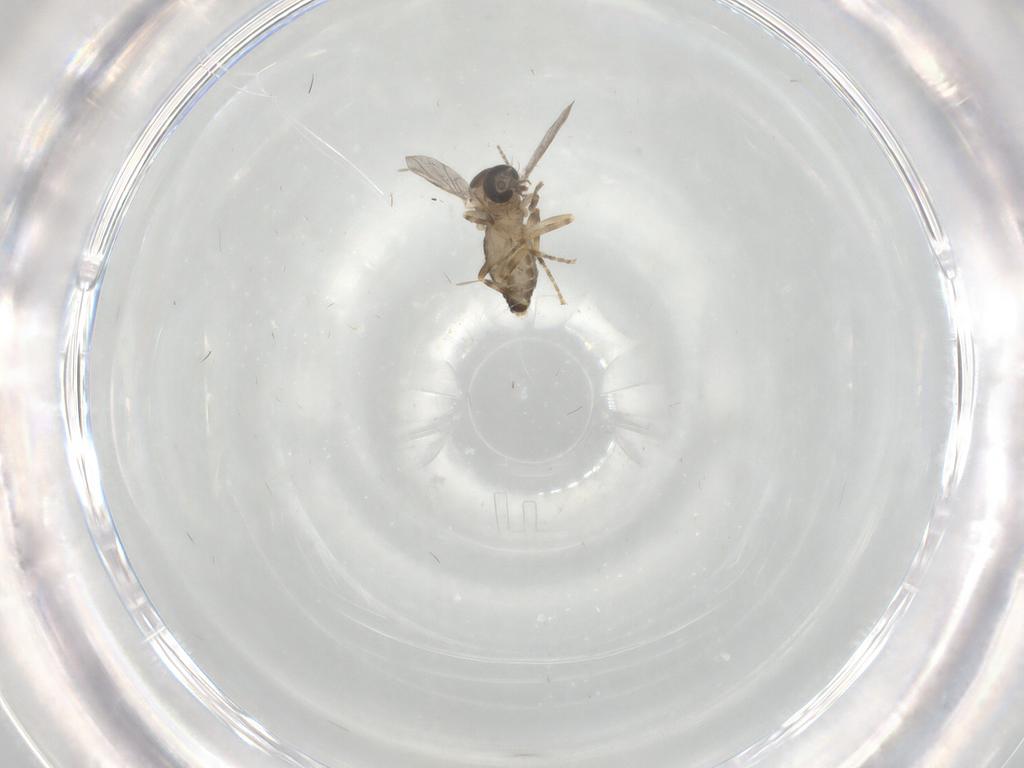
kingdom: Animalia
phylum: Arthropoda
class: Insecta
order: Diptera
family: Ceratopogonidae
